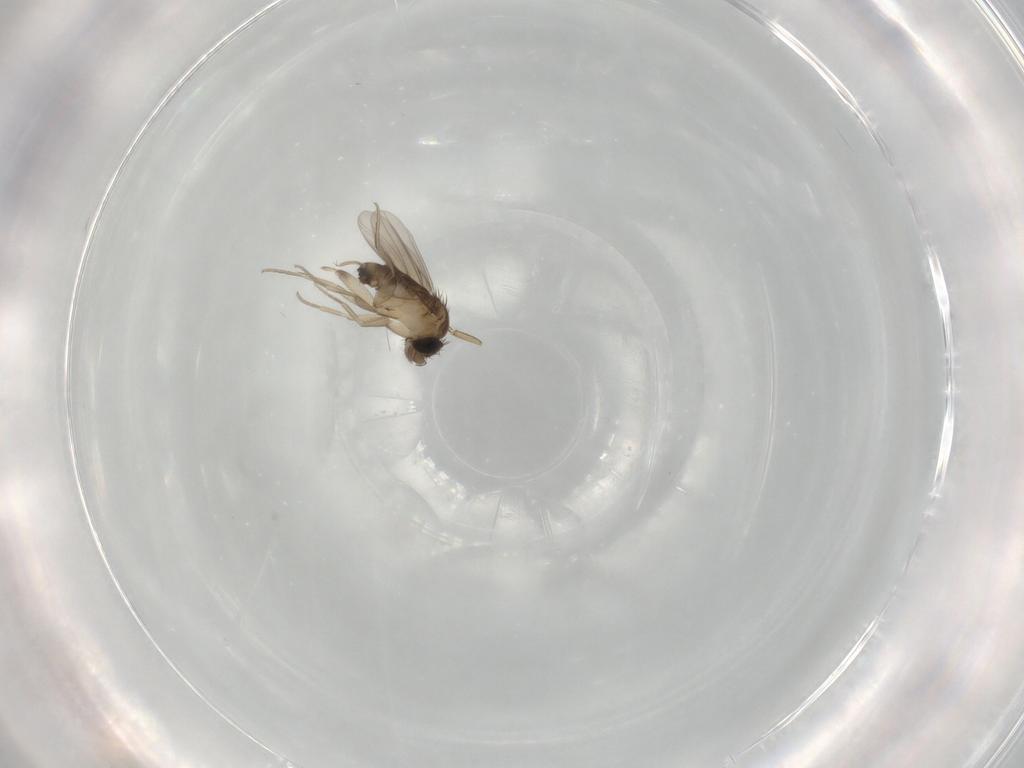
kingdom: Animalia
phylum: Arthropoda
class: Insecta
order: Diptera
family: Phoridae
